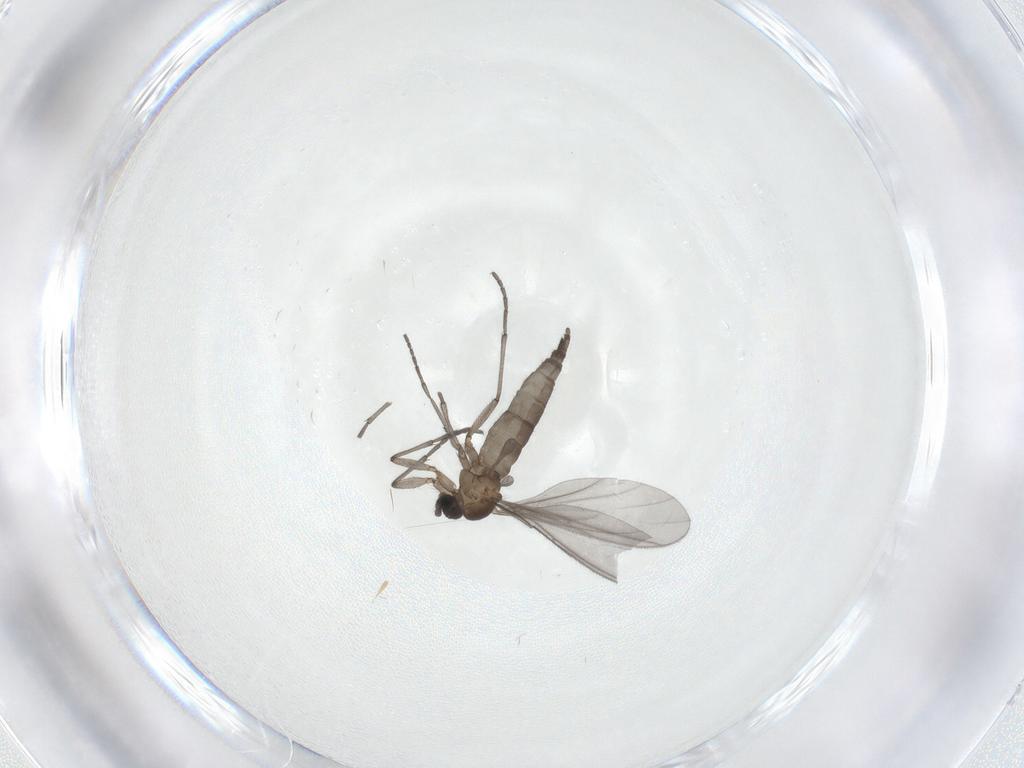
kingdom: Animalia
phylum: Arthropoda
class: Insecta
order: Diptera
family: Sciaridae
